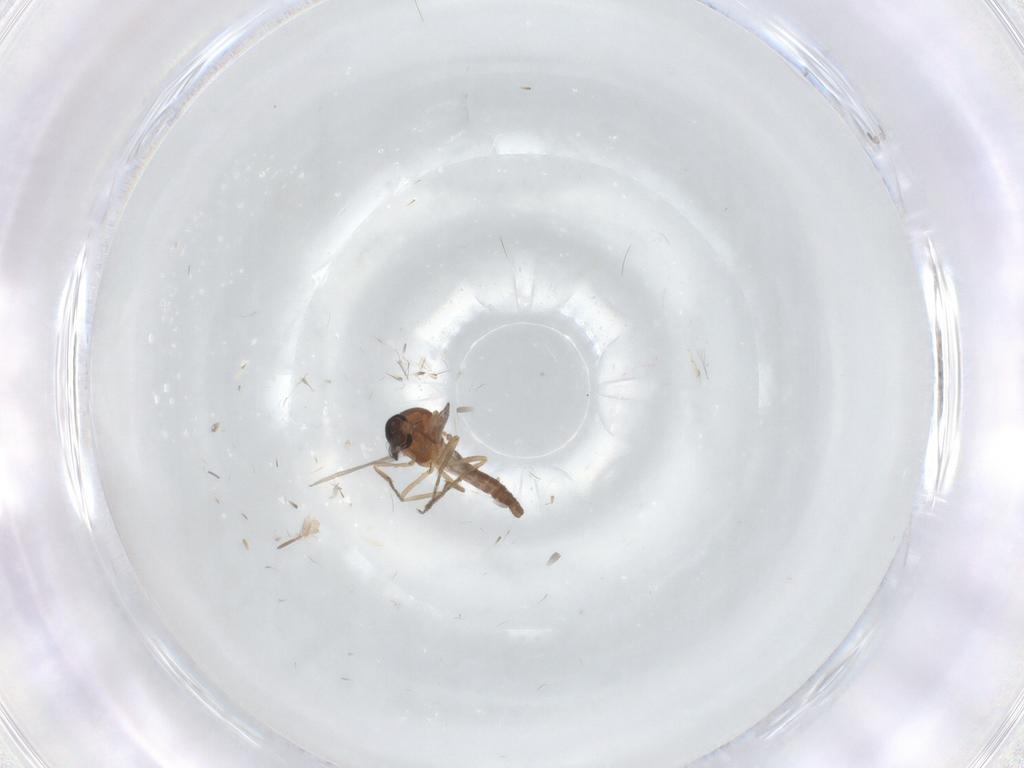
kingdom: Animalia
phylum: Arthropoda
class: Insecta
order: Diptera
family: Ceratopogonidae
